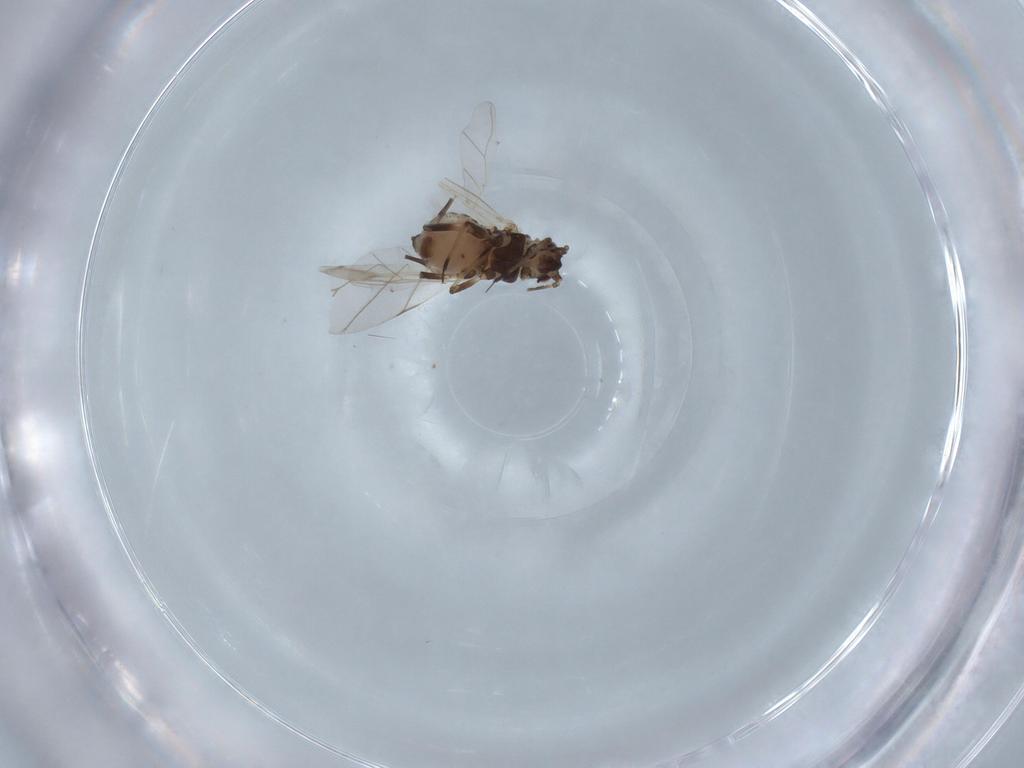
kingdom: Animalia
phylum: Arthropoda
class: Insecta
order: Hemiptera
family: Aphididae
